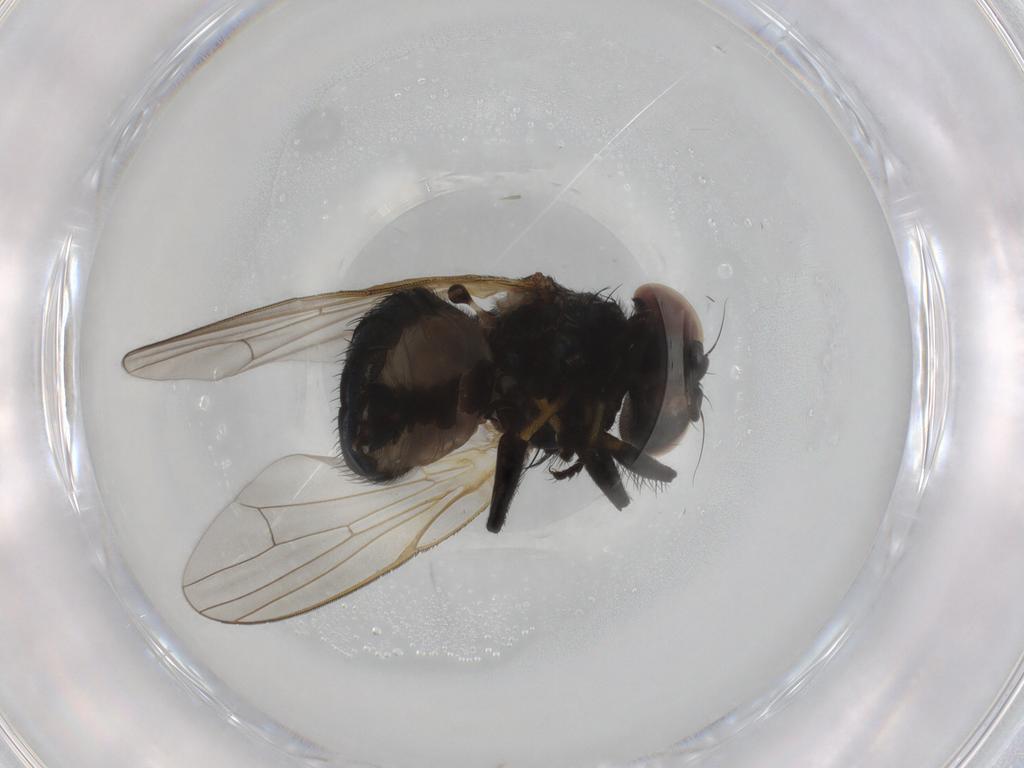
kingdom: Animalia
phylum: Arthropoda
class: Insecta
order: Diptera
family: Lonchaeidae
